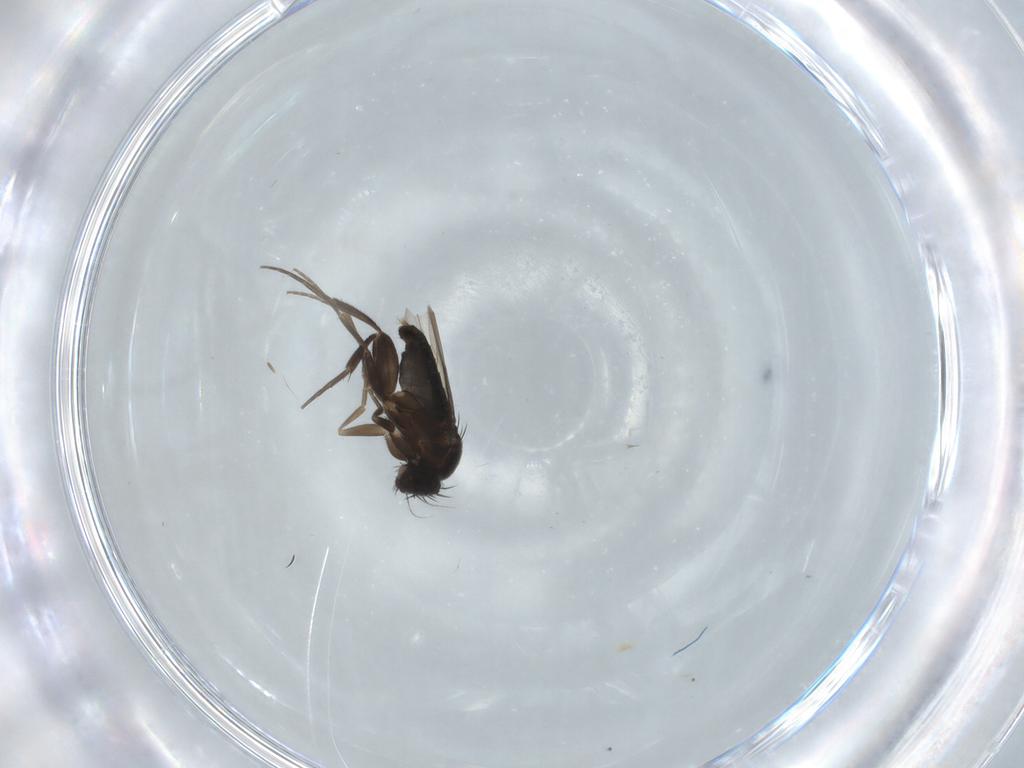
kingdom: Animalia
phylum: Arthropoda
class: Insecta
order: Diptera
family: Phoridae
